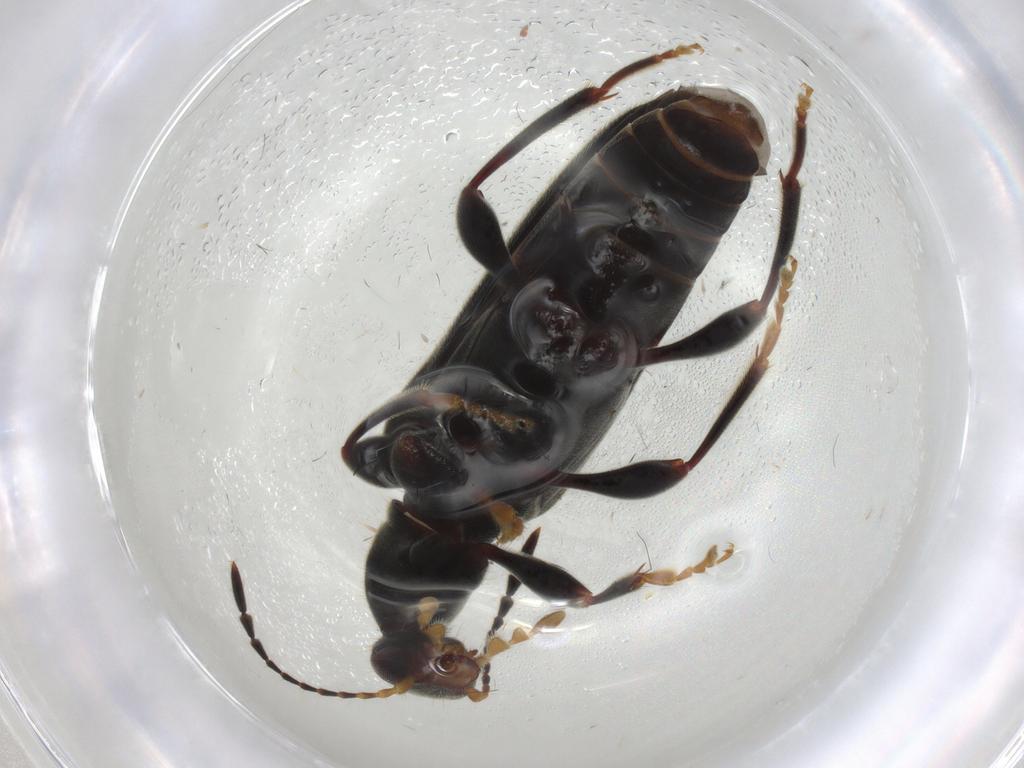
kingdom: Animalia
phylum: Arthropoda
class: Insecta
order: Coleoptera
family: Anthicidae
